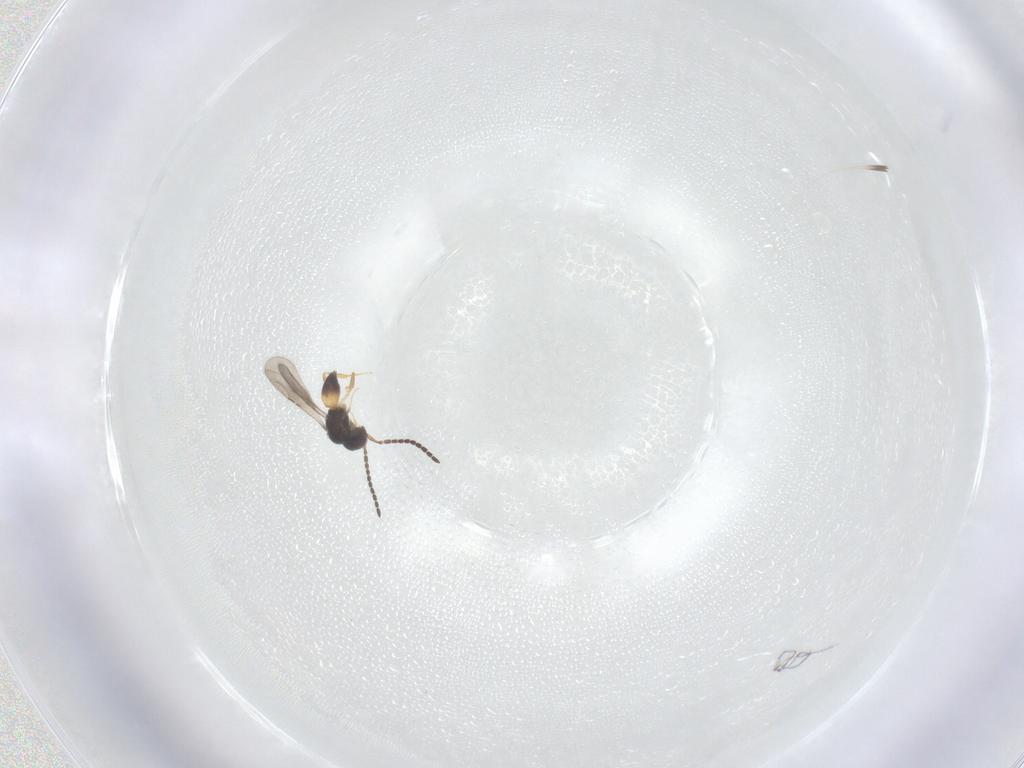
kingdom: Animalia
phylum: Arthropoda
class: Insecta
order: Hymenoptera
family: Ceraphronidae
